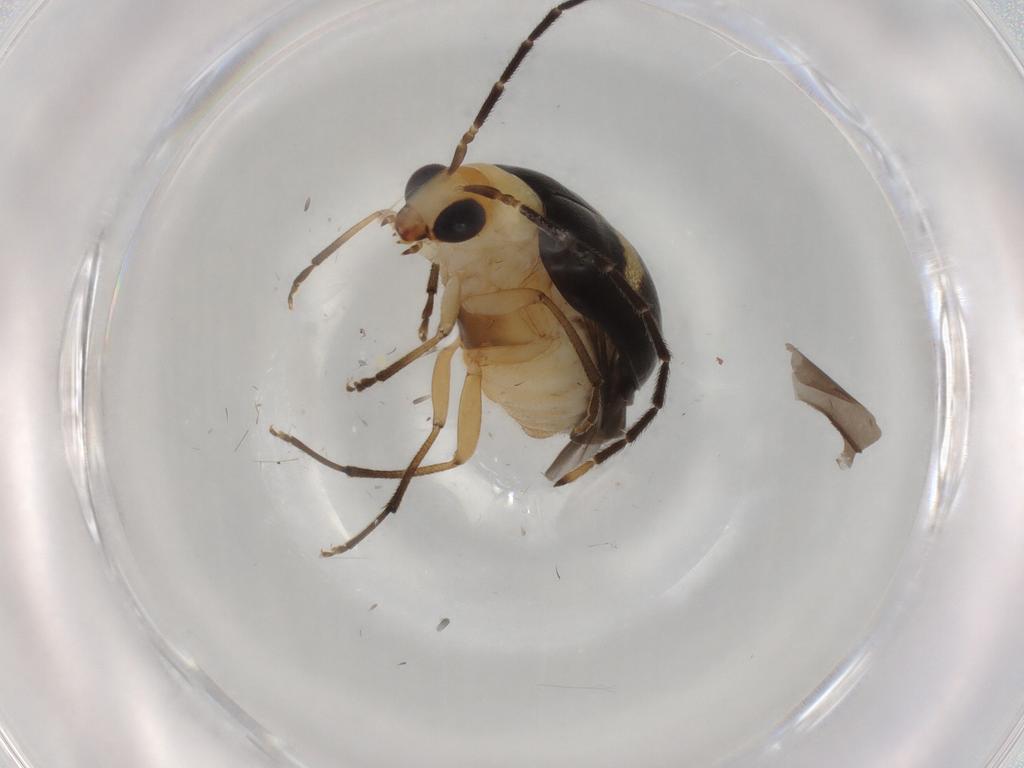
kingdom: Animalia
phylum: Arthropoda
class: Insecta
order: Coleoptera
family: Chrysomelidae
